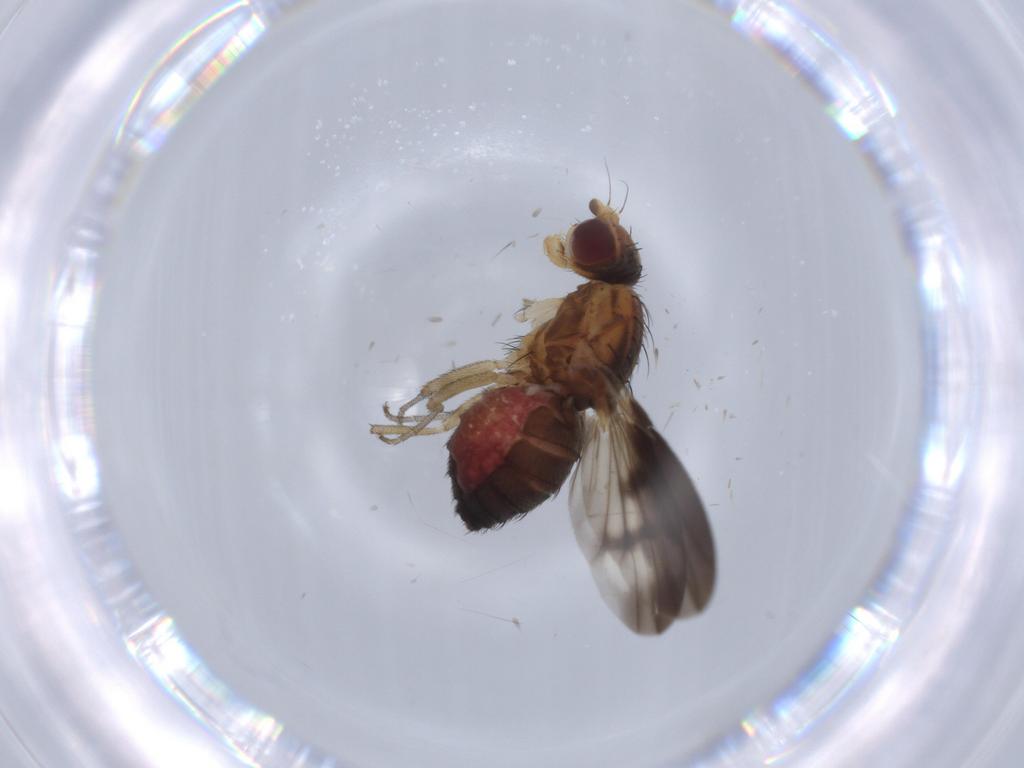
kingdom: Animalia
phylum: Arthropoda
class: Insecta
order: Diptera
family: Heleomyzidae
